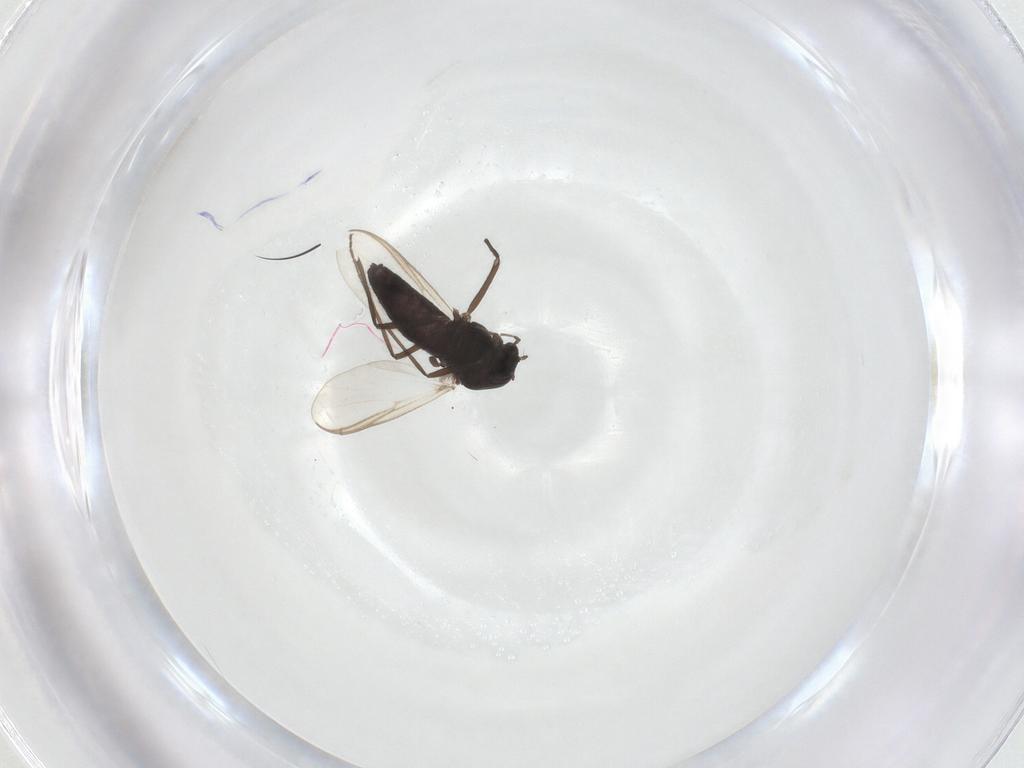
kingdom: Animalia
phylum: Arthropoda
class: Insecta
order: Diptera
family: Chironomidae
